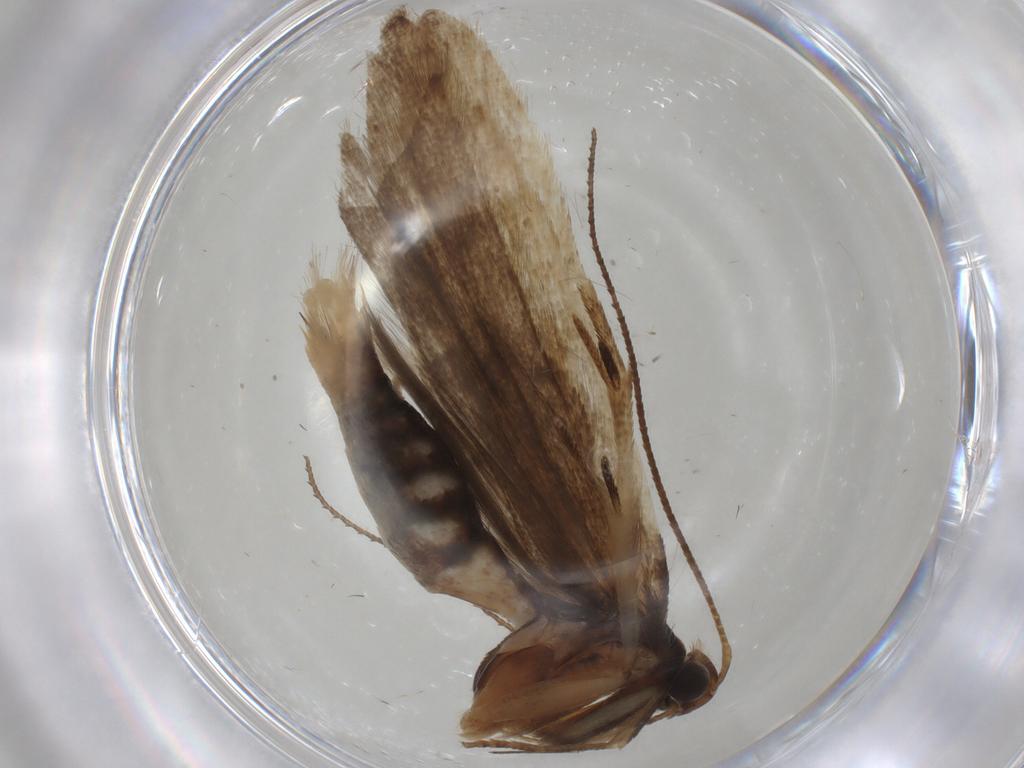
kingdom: Animalia
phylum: Arthropoda
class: Insecta
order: Lepidoptera
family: Gelechiidae
